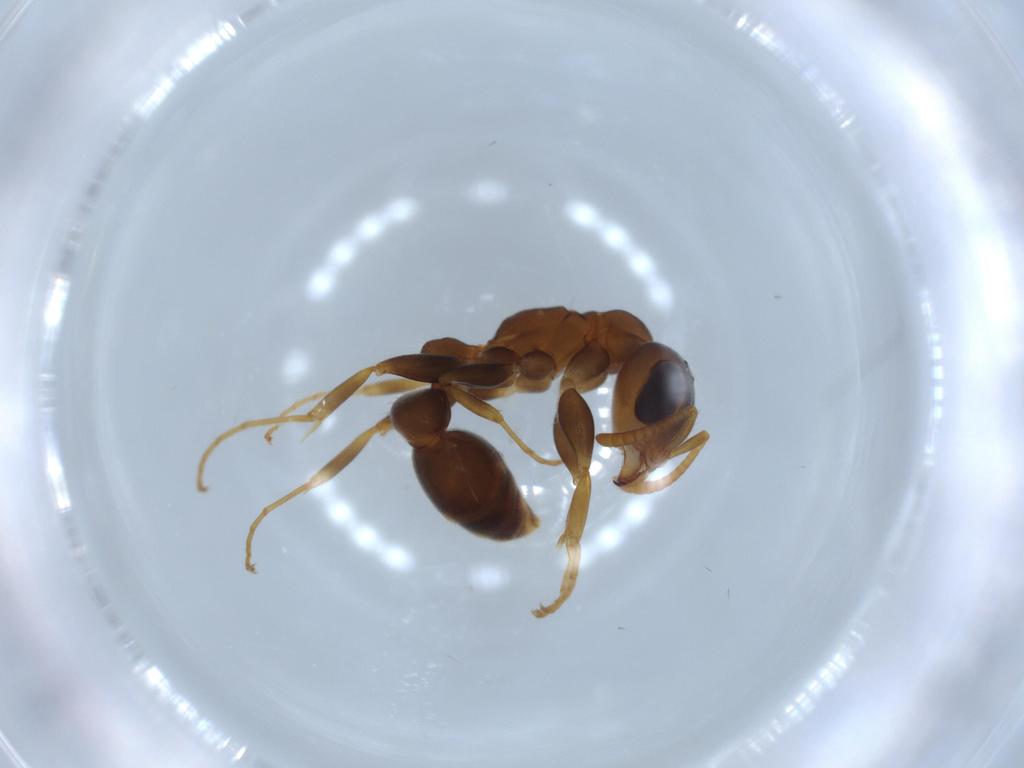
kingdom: Animalia
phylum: Arthropoda
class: Insecta
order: Hymenoptera
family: Formicidae
